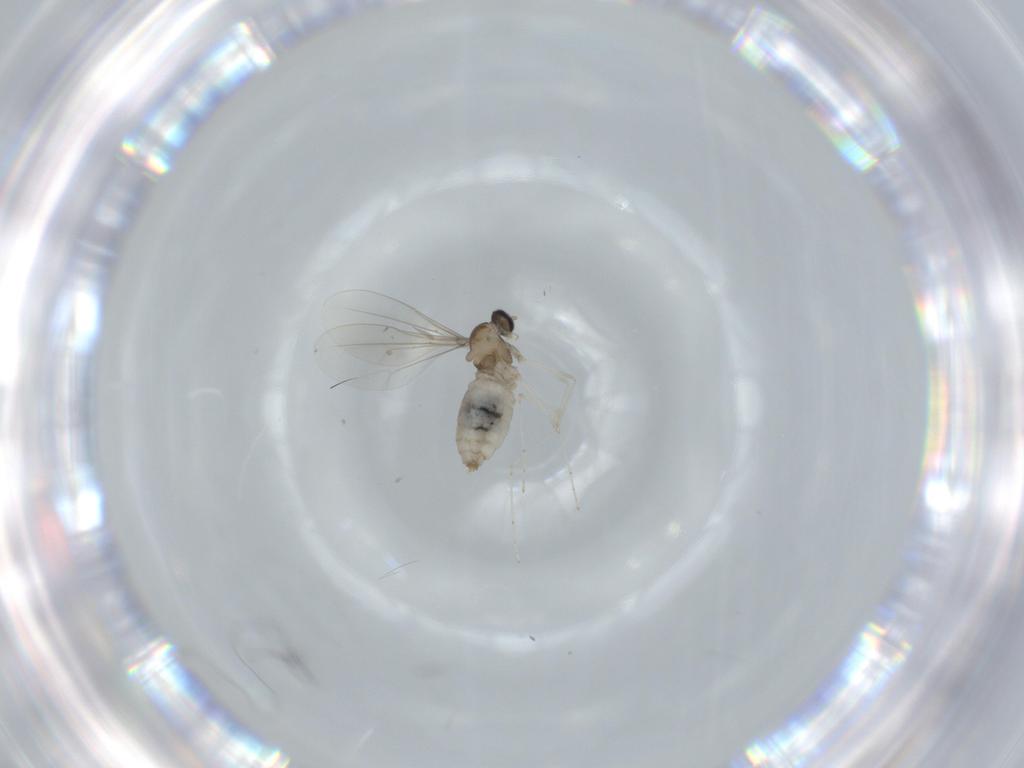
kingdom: Animalia
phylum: Arthropoda
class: Insecta
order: Diptera
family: Cecidomyiidae
